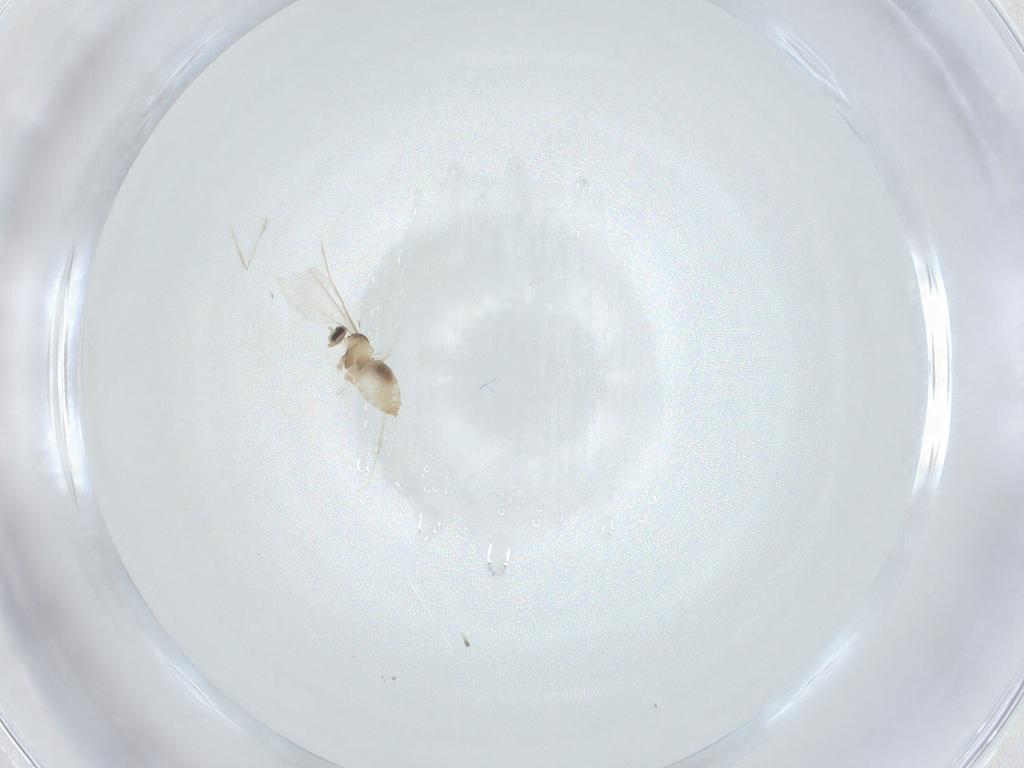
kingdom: Animalia
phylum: Arthropoda
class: Insecta
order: Diptera
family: Cecidomyiidae
